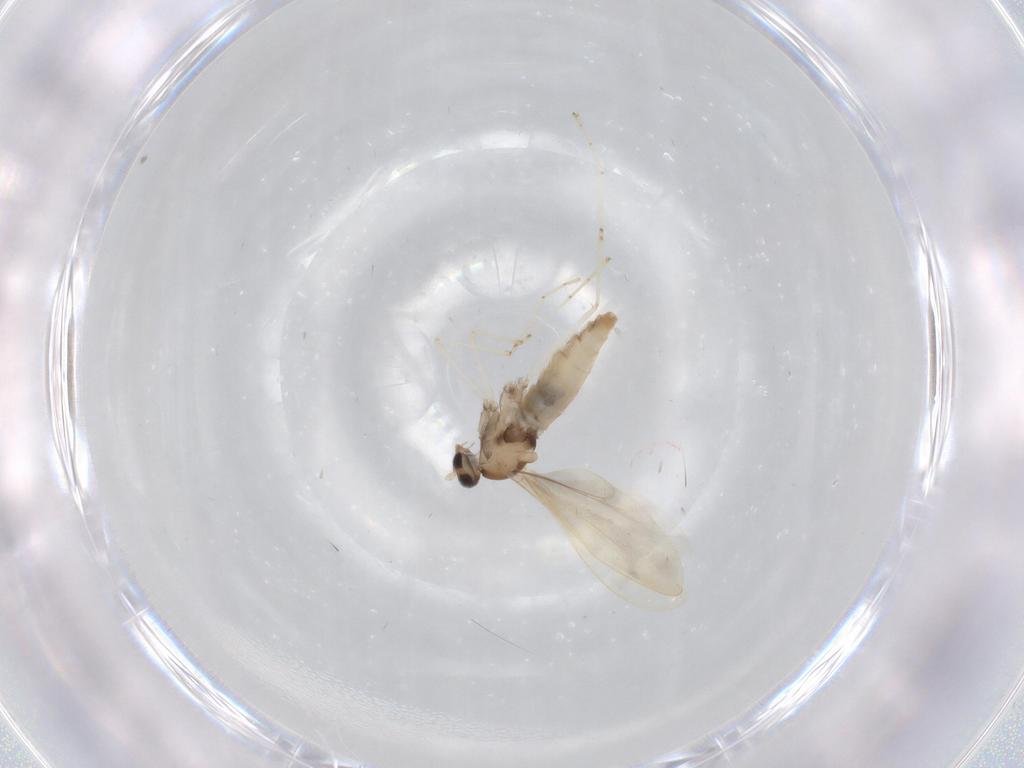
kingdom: Animalia
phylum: Arthropoda
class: Insecta
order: Diptera
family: Cecidomyiidae
